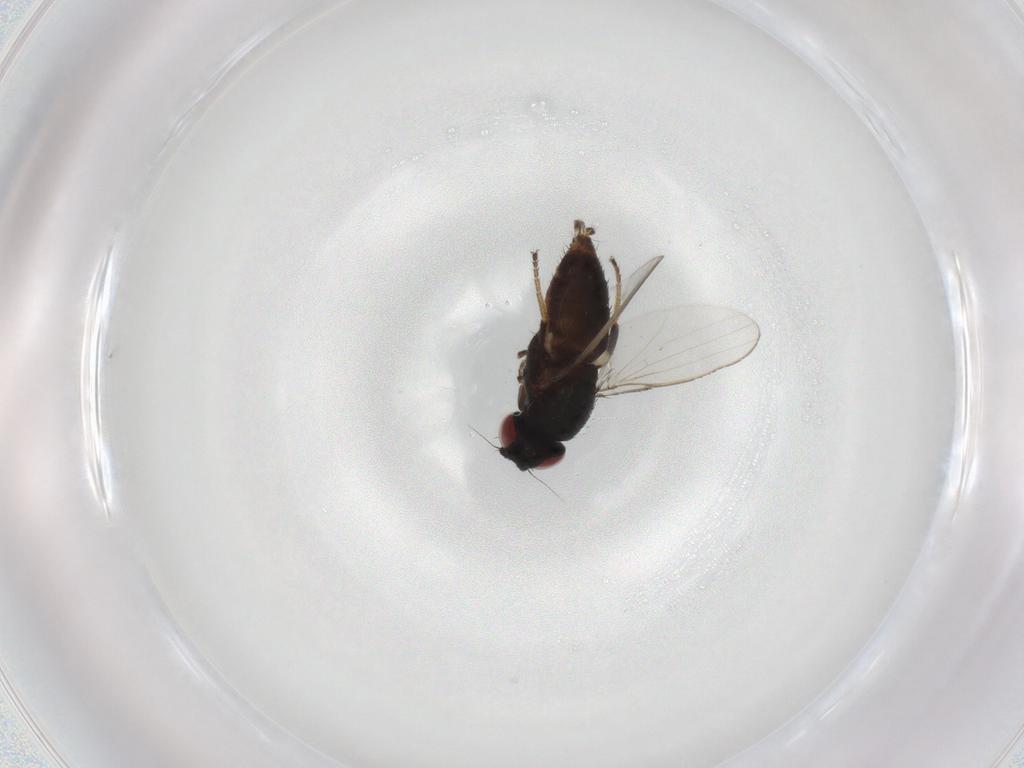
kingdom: Animalia
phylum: Arthropoda
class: Insecta
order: Diptera
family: Milichiidae
